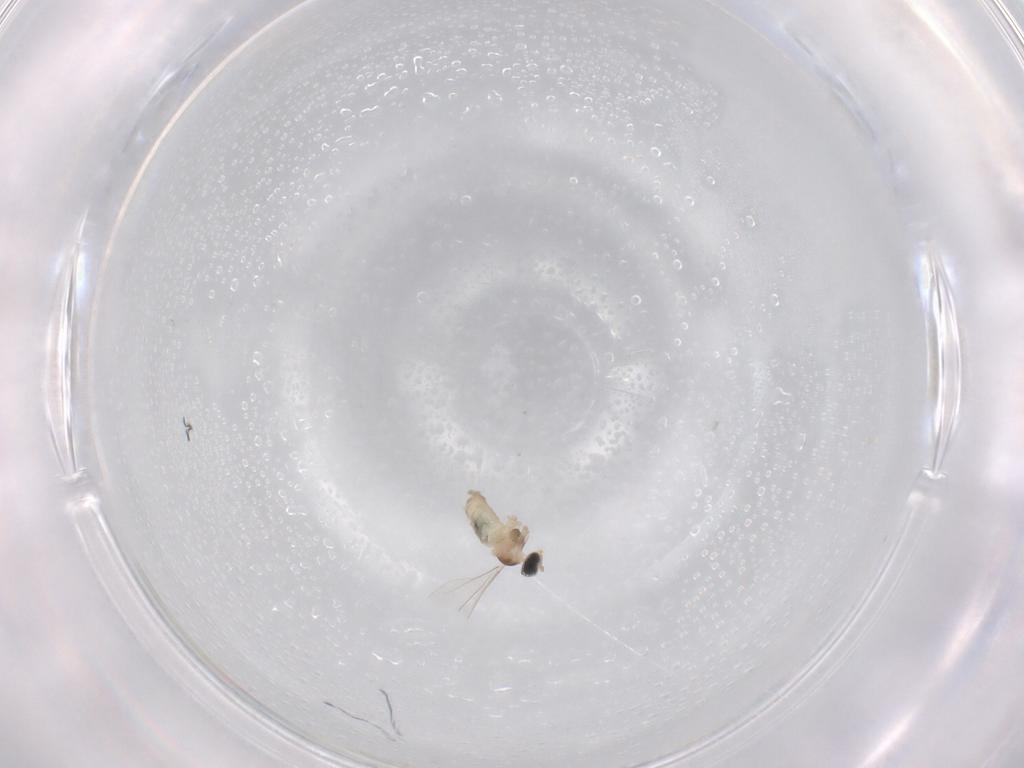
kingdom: Animalia
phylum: Arthropoda
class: Insecta
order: Diptera
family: Cecidomyiidae
